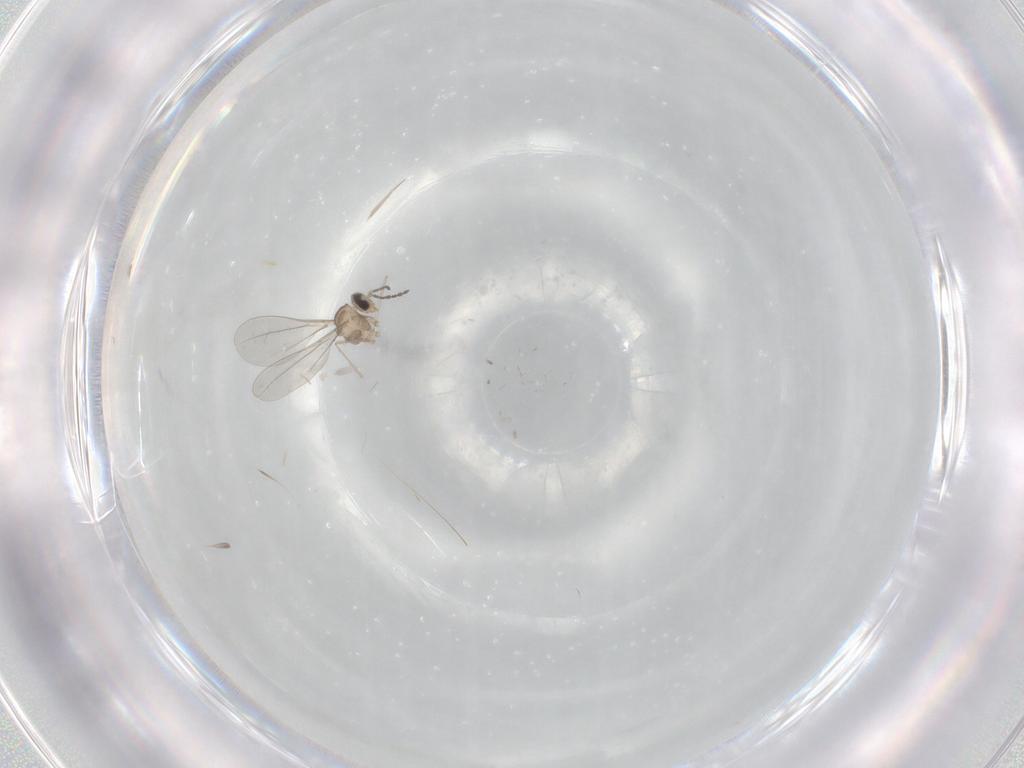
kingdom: Animalia
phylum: Arthropoda
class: Insecta
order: Diptera
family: Cecidomyiidae
